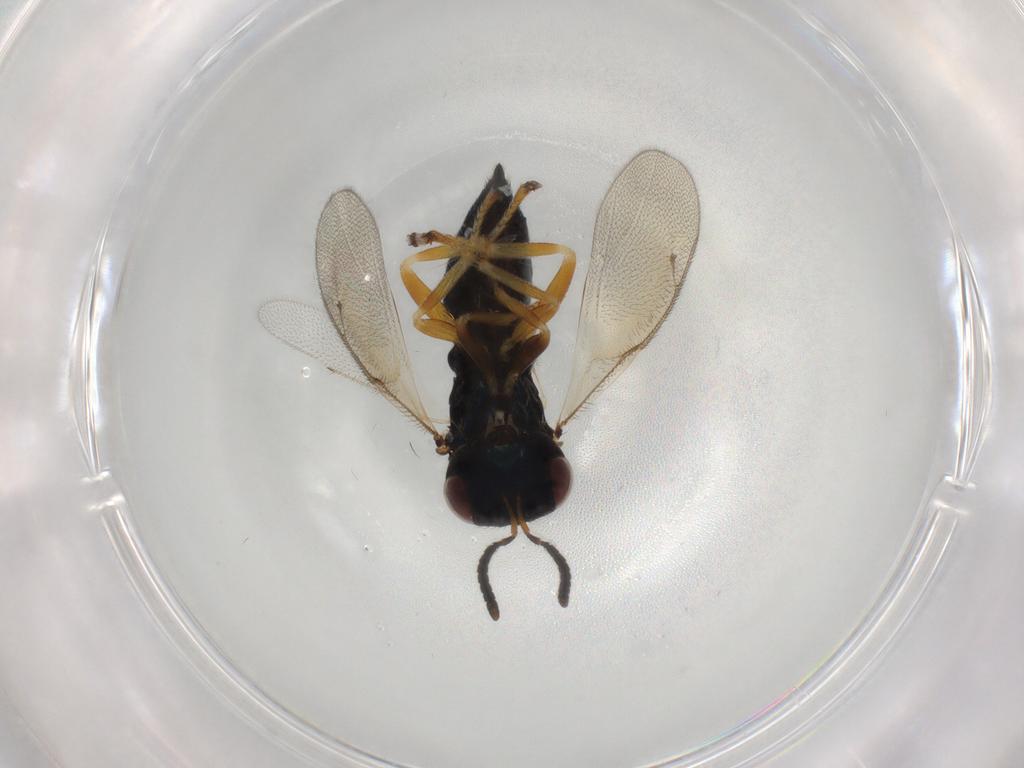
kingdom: Animalia
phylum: Arthropoda
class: Insecta
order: Hymenoptera
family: Pteromalidae
